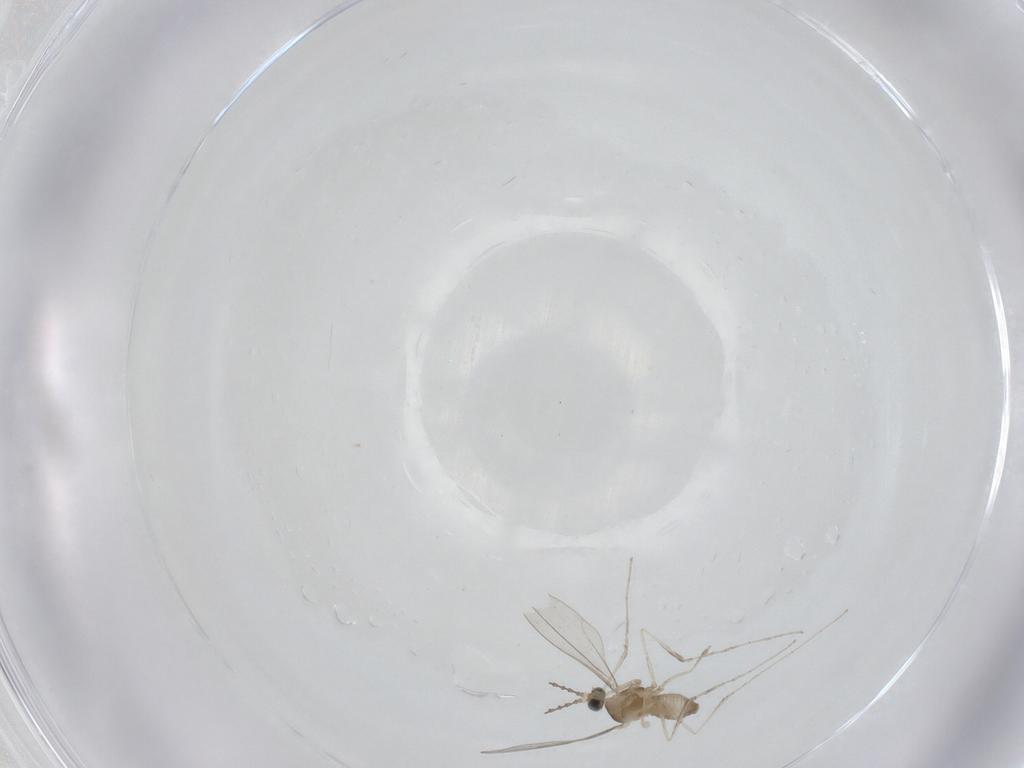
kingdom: Animalia
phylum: Arthropoda
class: Insecta
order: Diptera
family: Cecidomyiidae
